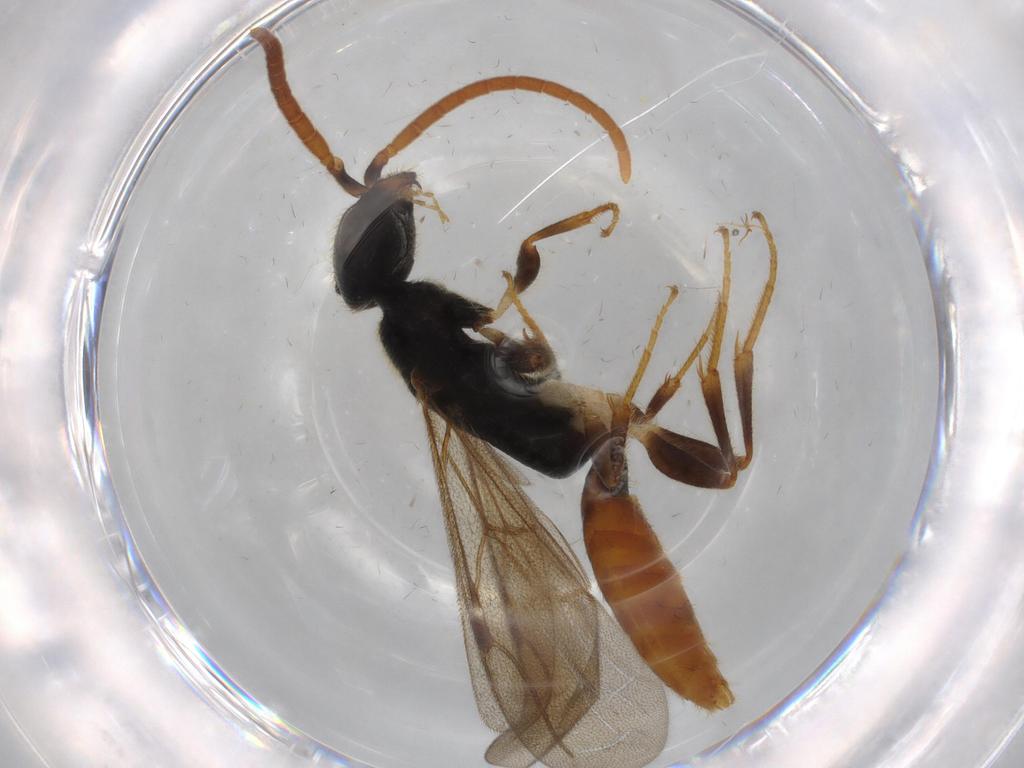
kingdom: Animalia
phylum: Arthropoda
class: Insecta
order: Hymenoptera
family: Bethylidae
